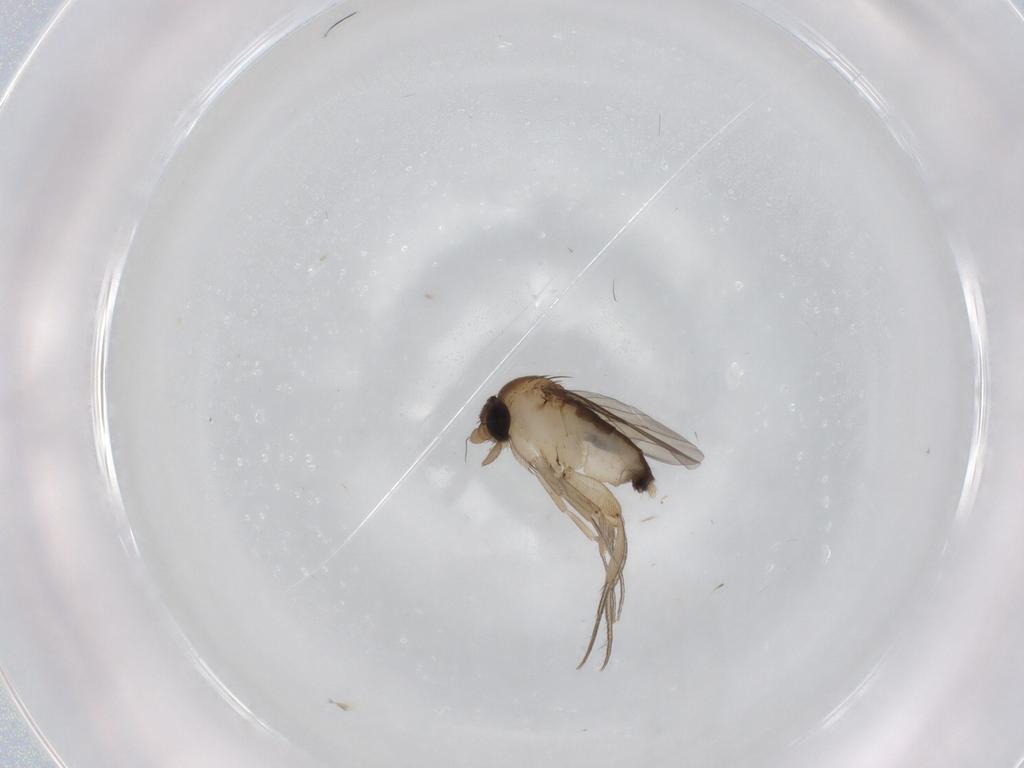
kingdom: Animalia
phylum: Arthropoda
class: Insecta
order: Diptera
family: Phoridae
